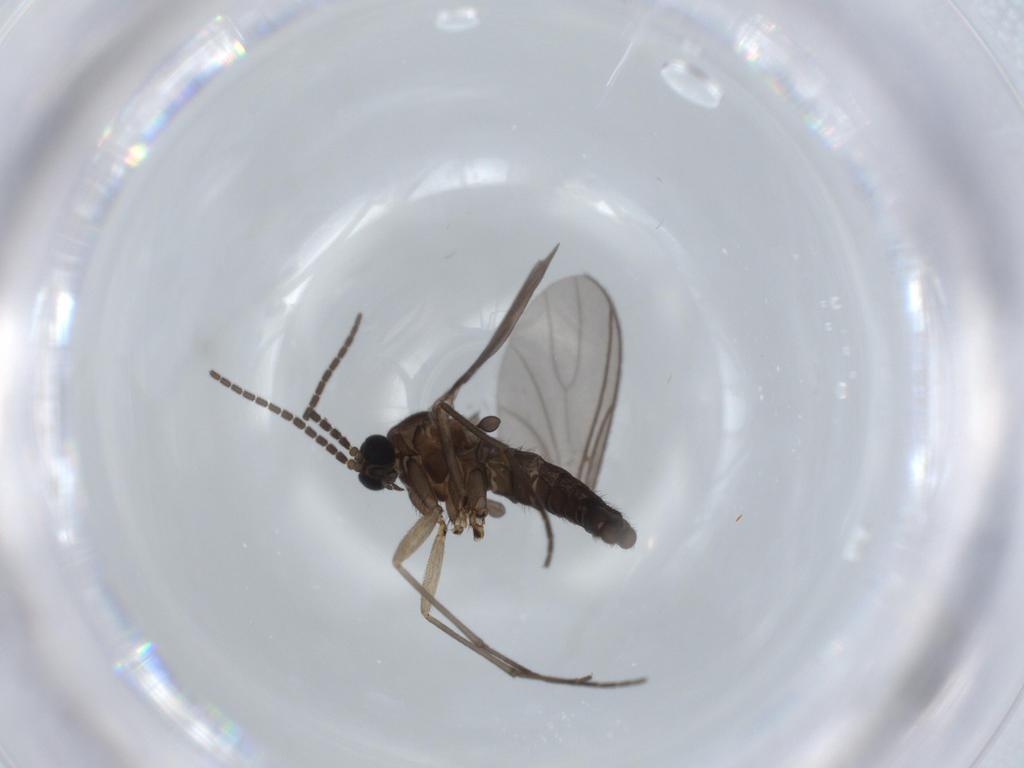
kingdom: Animalia
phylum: Arthropoda
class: Insecta
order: Diptera
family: Sciaridae
